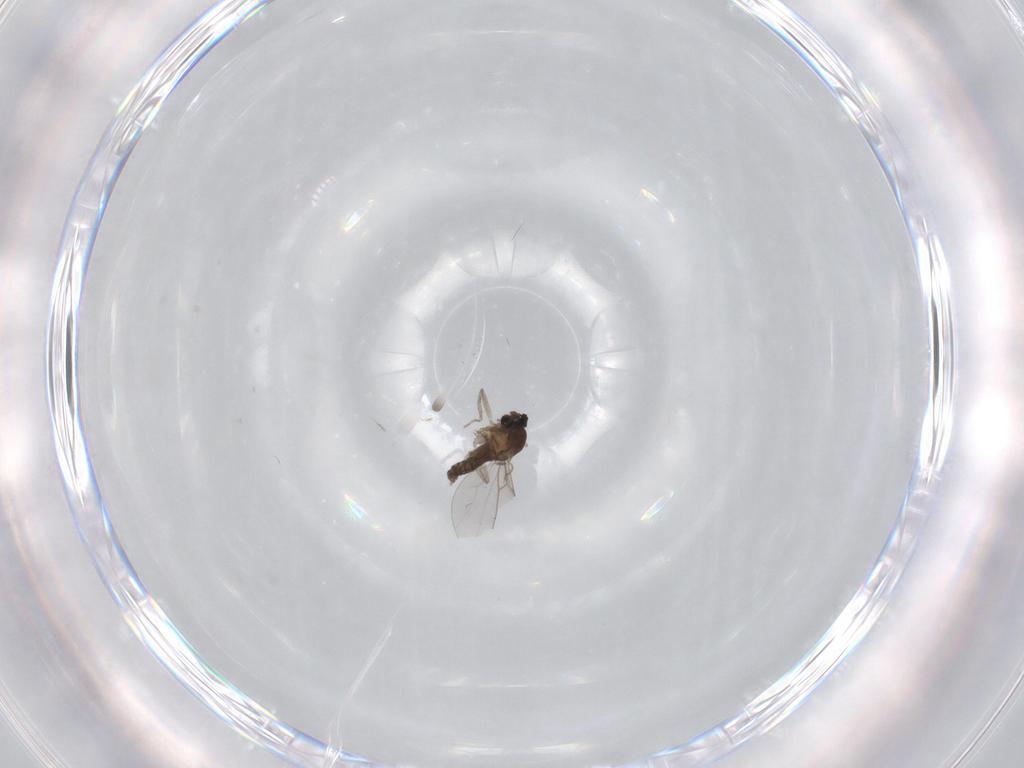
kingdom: Animalia
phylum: Arthropoda
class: Insecta
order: Diptera
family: Cecidomyiidae
